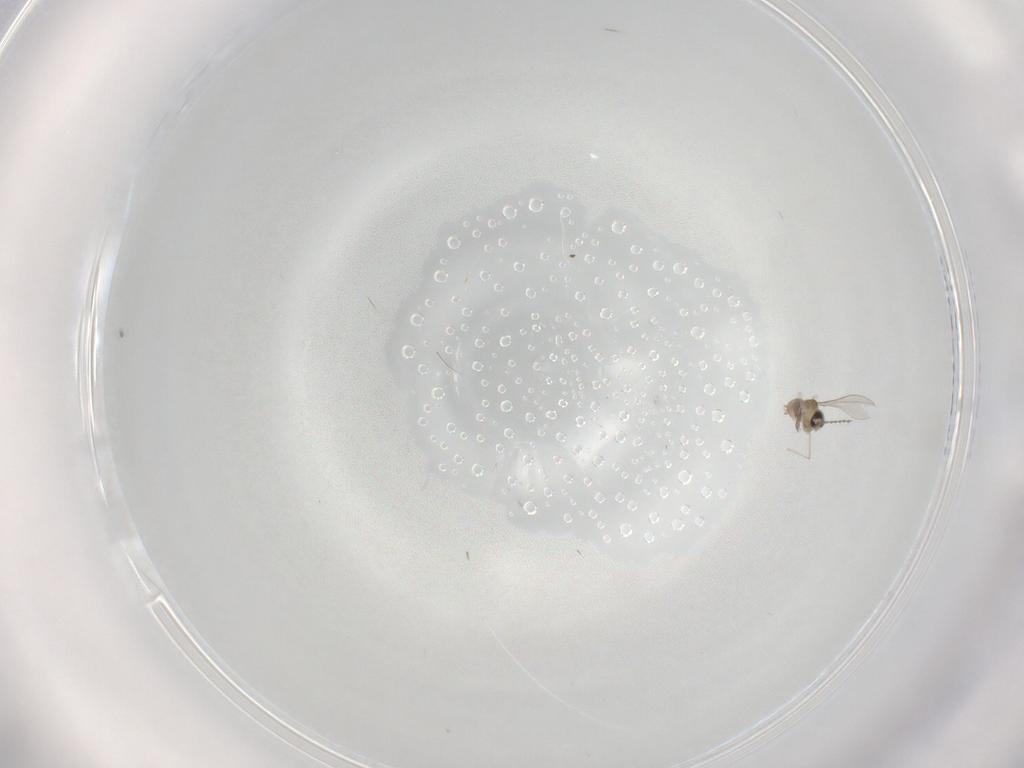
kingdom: Animalia
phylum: Arthropoda
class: Insecta
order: Diptera
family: Cecidomyiidae
